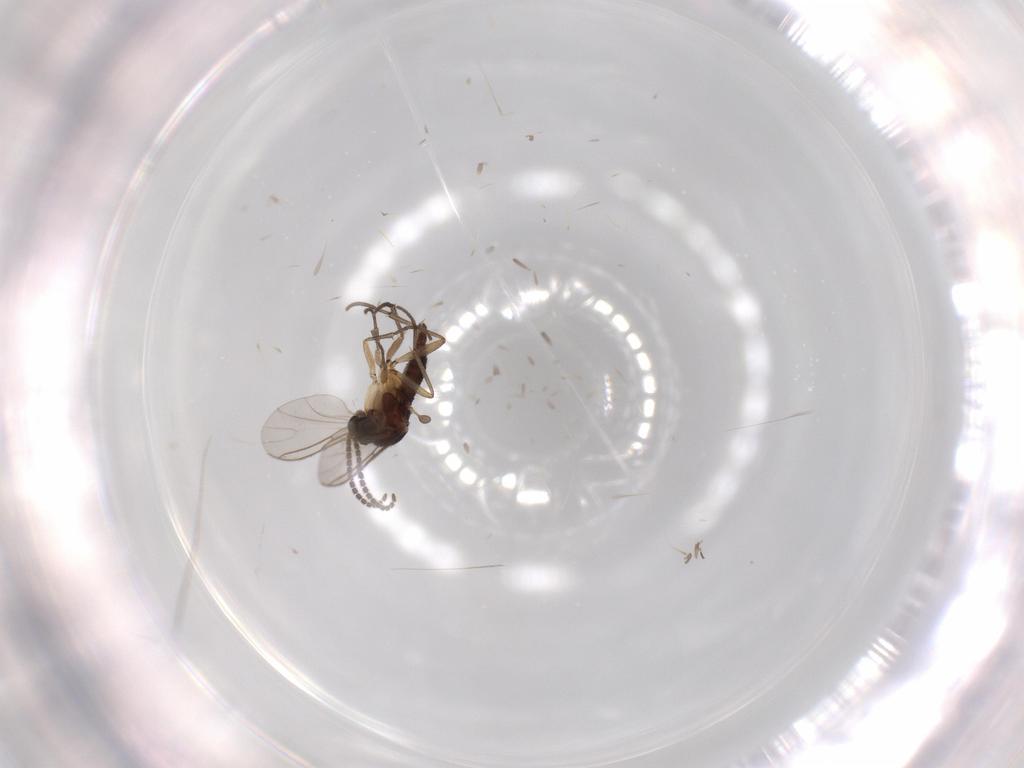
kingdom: Animalia
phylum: Arthropoda
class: Insecta
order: Diptera
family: Sciaridae
